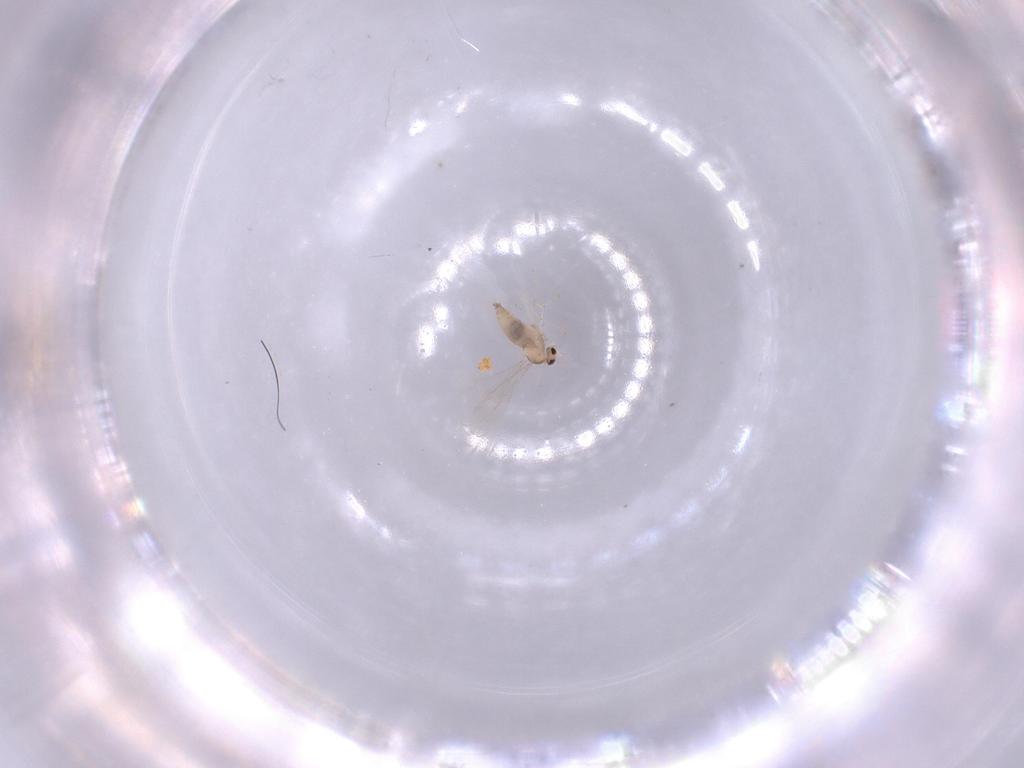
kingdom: Animalia
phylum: Arthropoda
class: Insecta
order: Diptera
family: Cecidomyiidae
